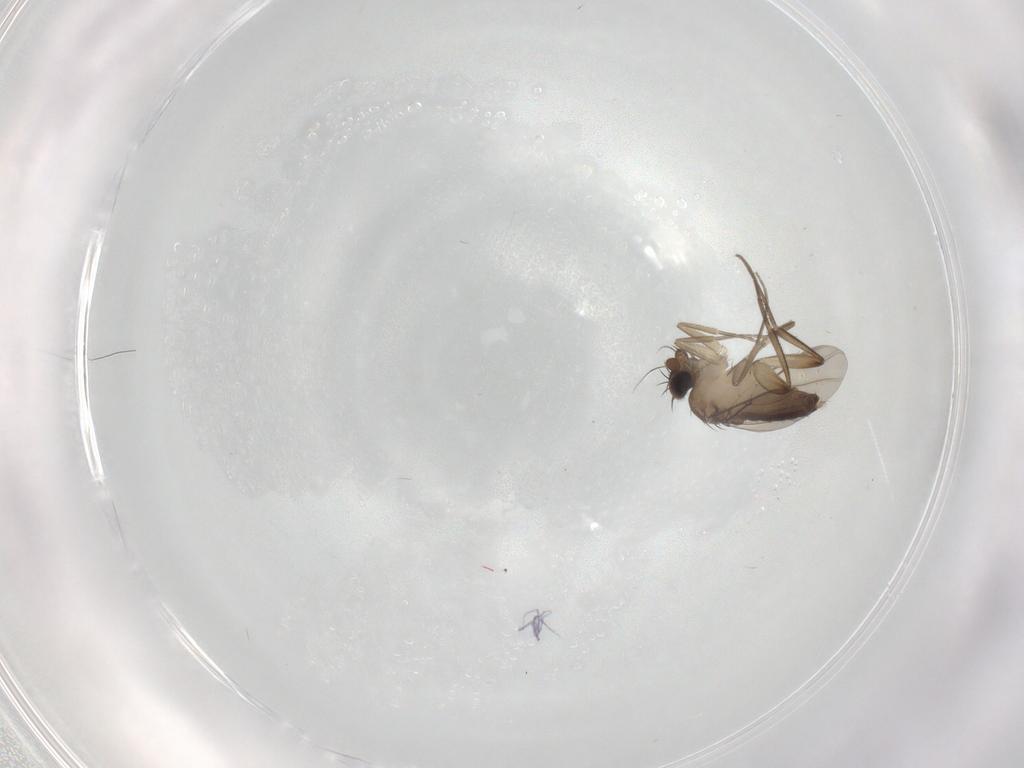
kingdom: Animalia
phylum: Arthropoda
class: Insecta
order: Diptera
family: Phoridae
